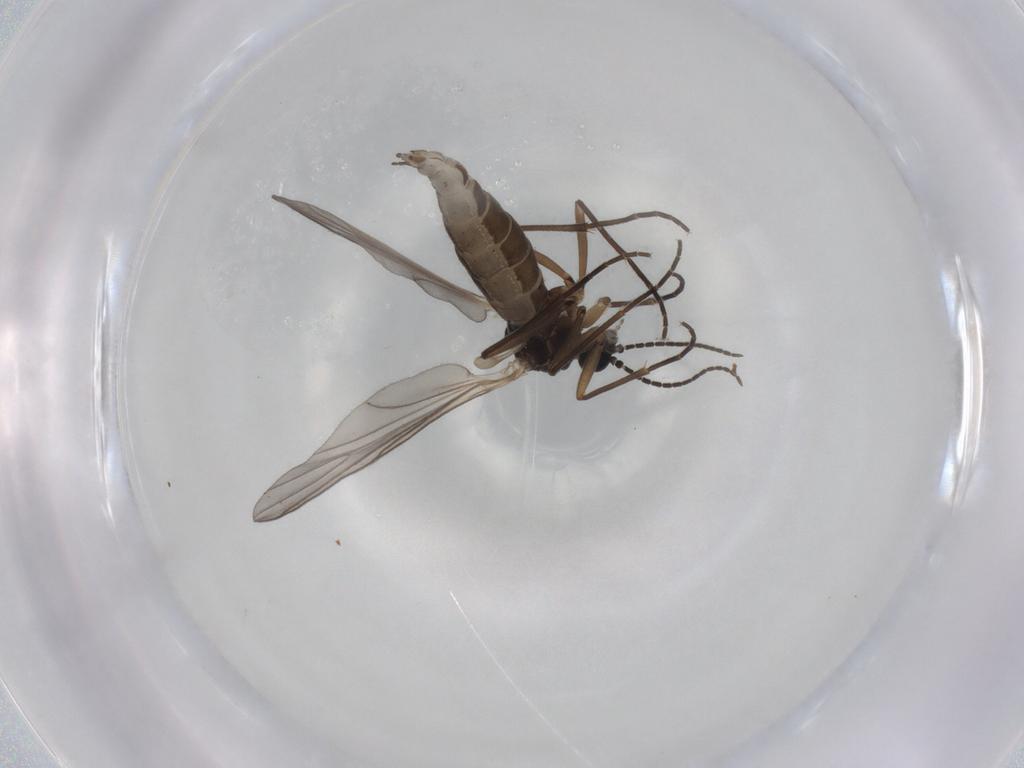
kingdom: Animalia
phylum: Arthropoda
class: Insecta
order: Diptera
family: Sciaridae
